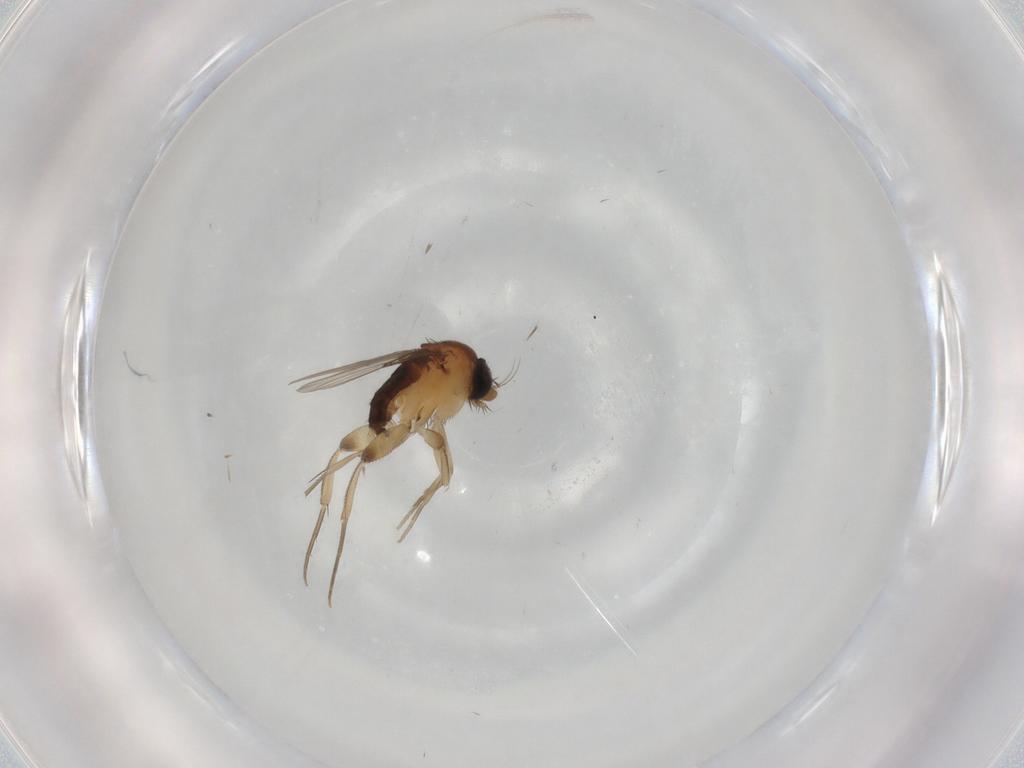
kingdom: Animalia
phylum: Arthropoda
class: Insecta
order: Diptera
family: Phoridae
